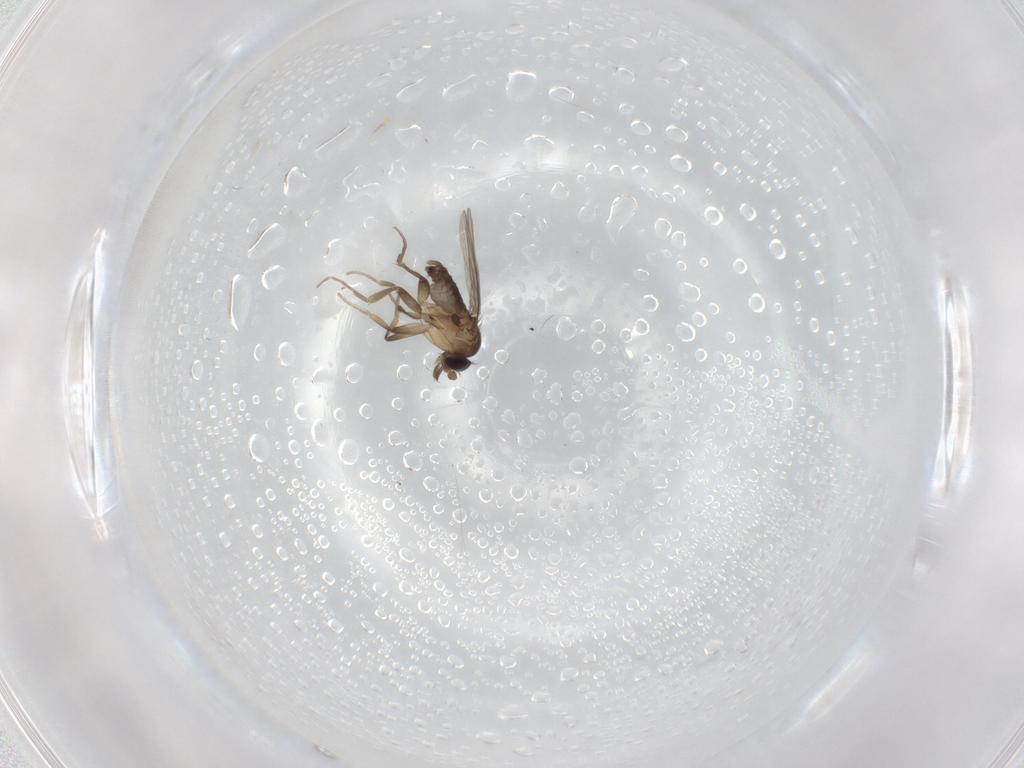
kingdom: Animalia
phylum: Arthropoda
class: Insecta
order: Diptera
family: Phoridae
